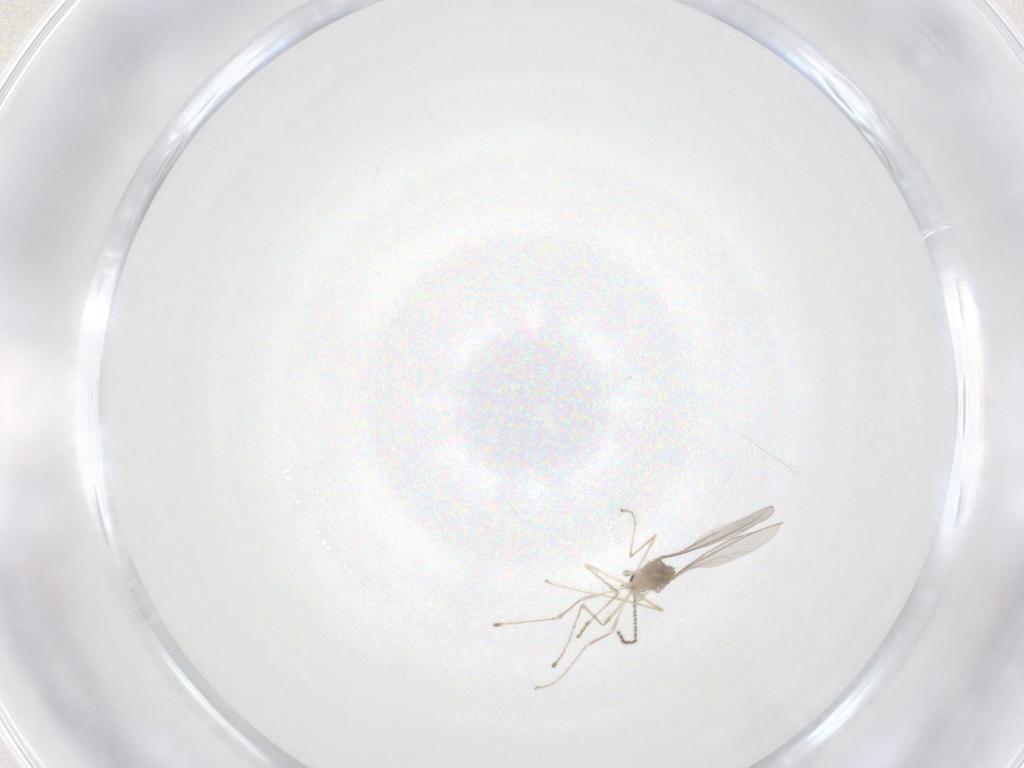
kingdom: Animalia
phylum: Arthropoda
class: Insecta
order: Diptera
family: Cecidomyiidae
